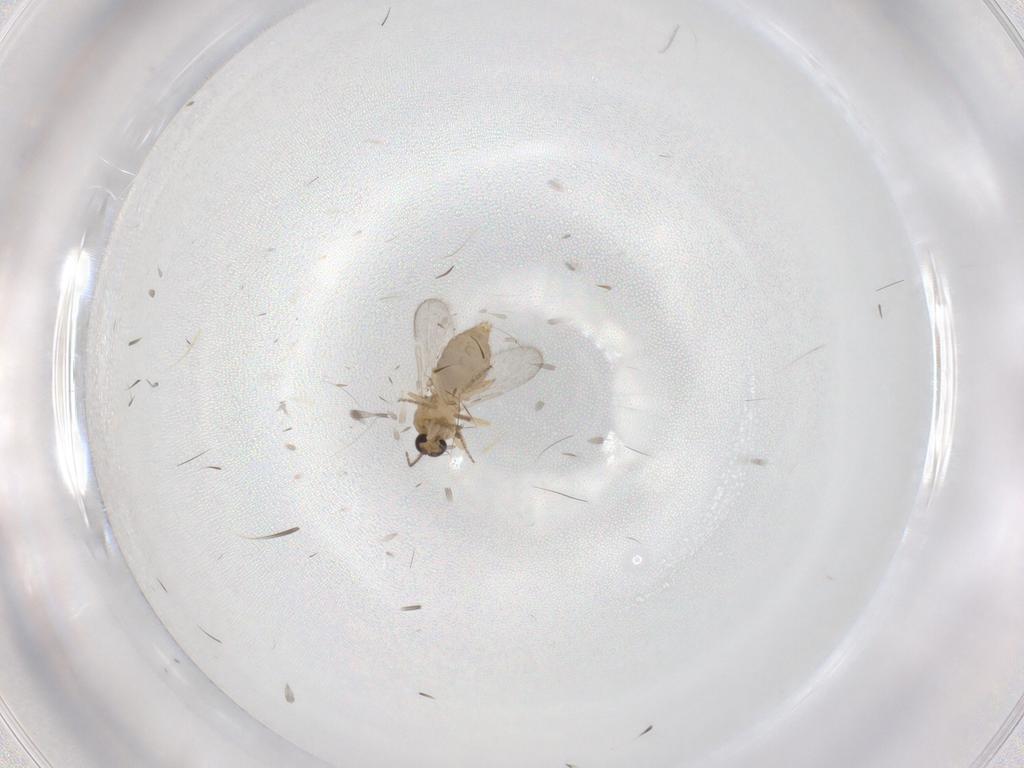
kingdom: Animalia
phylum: Arthropoda
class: Insecta
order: Diptera
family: Ceratopogonidae
